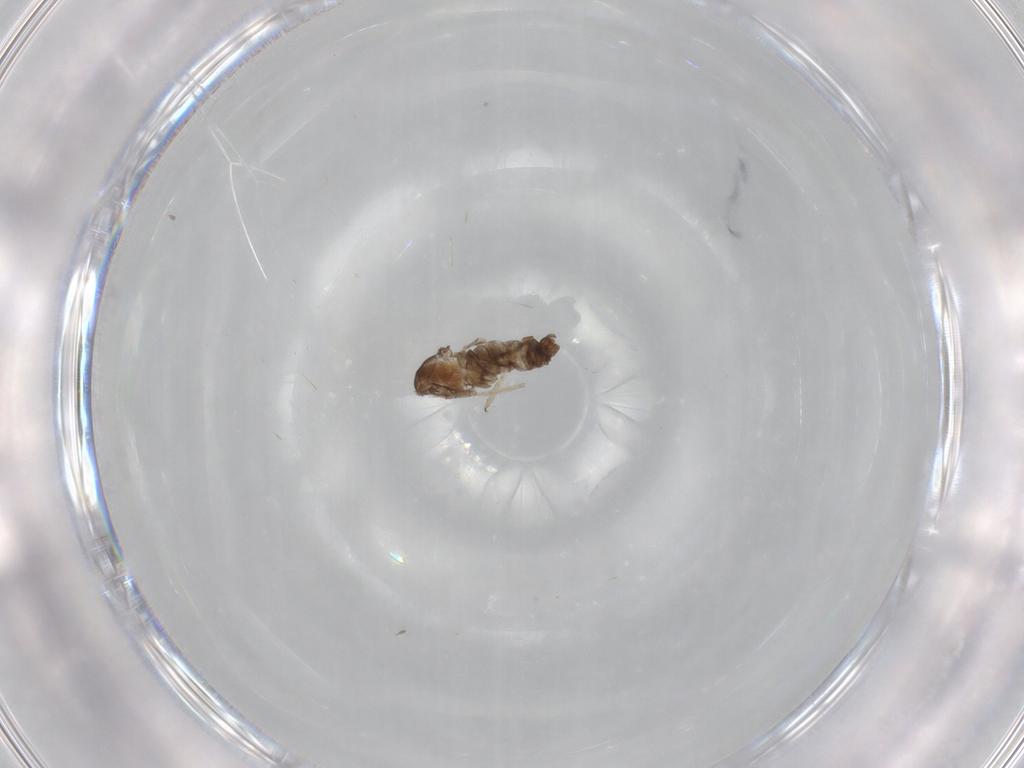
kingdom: Animalia
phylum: Arthropoda
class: Insecta
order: Diptera
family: Cecidomyiidae
